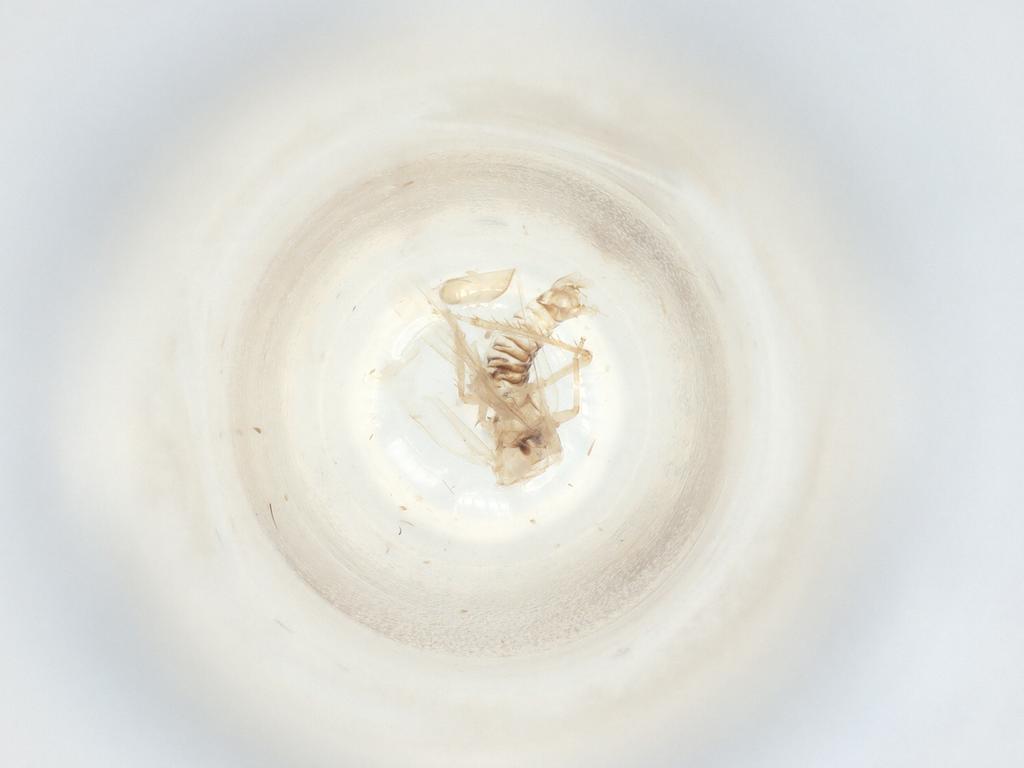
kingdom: Animalia
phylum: Arthropoda
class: Insecta
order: Hemiptera
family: Cicadellidae
